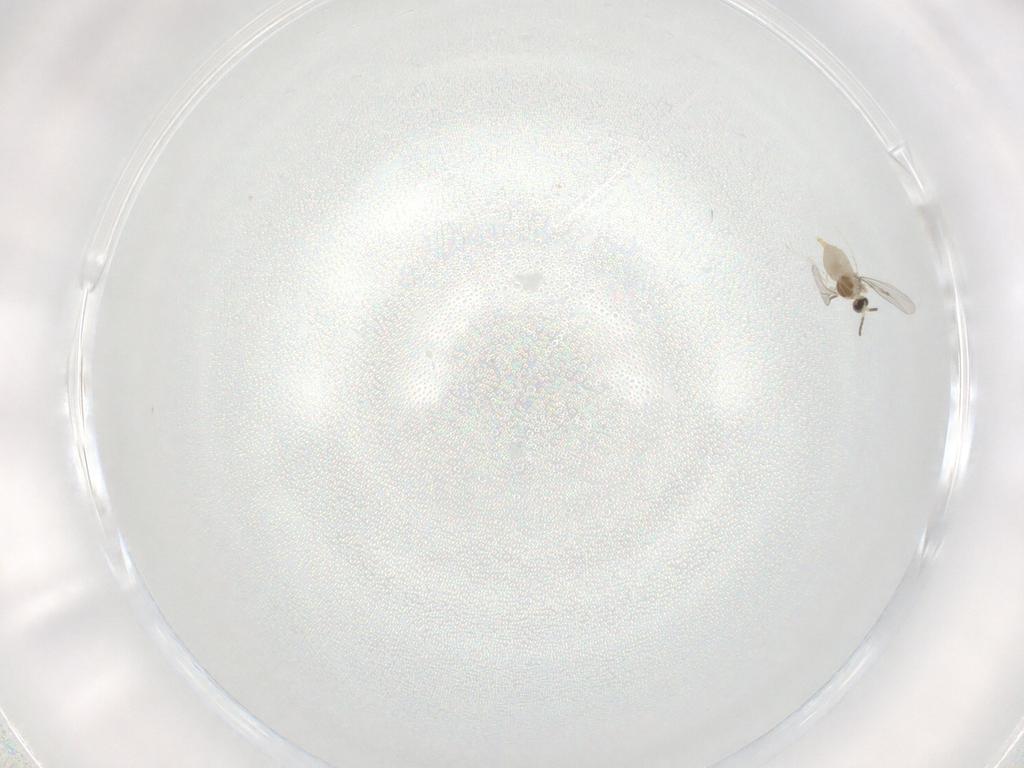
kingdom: Animalia
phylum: Arthropoda
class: Insecta
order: Diptera
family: Cecidomyiidae
